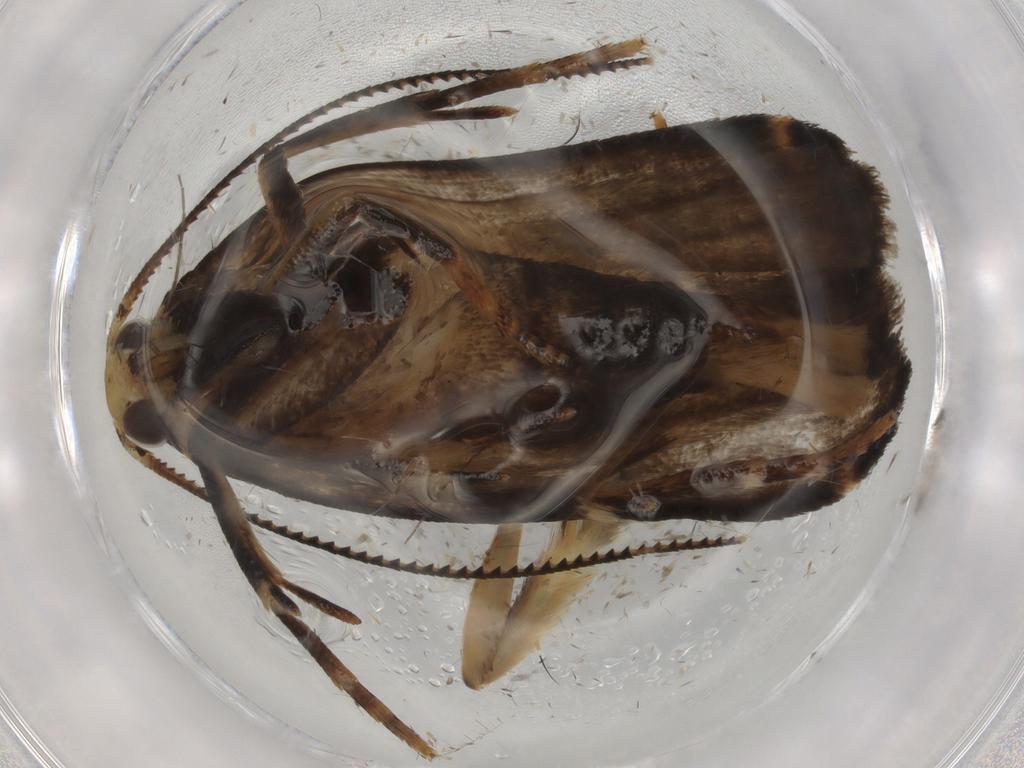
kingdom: Animalia
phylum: Arthropoda
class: Insecta
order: Lepidoptera
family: Gelechiidae
